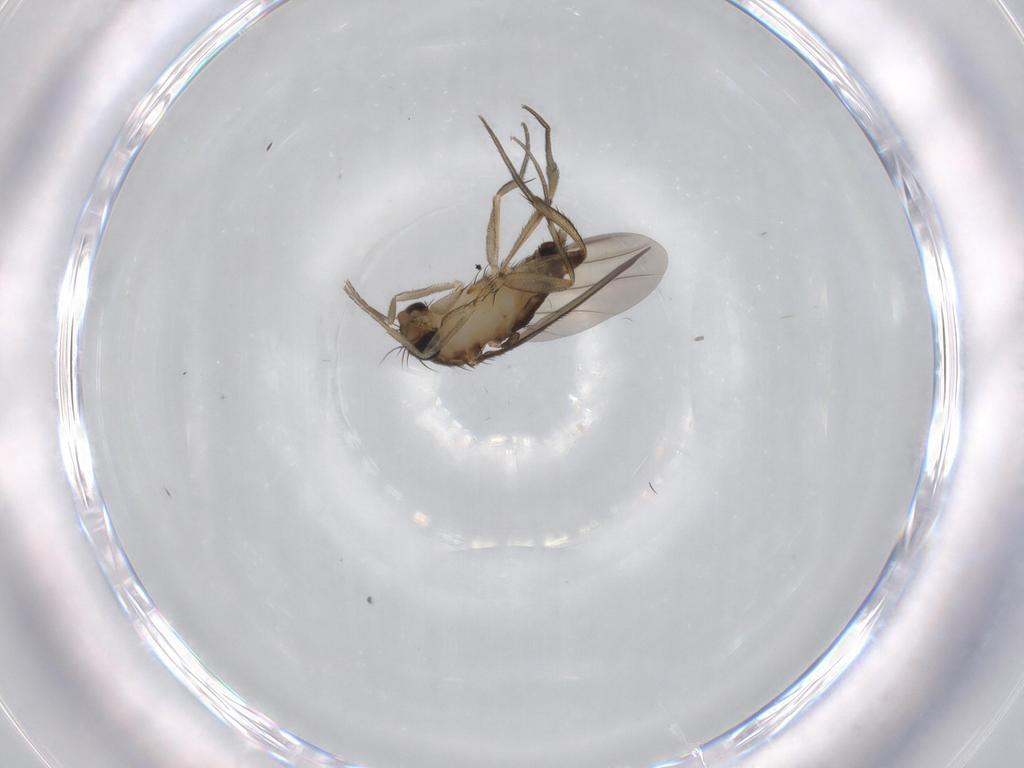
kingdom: Animalia
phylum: Arthropoda
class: Insecta
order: Diptera
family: Phoridae
